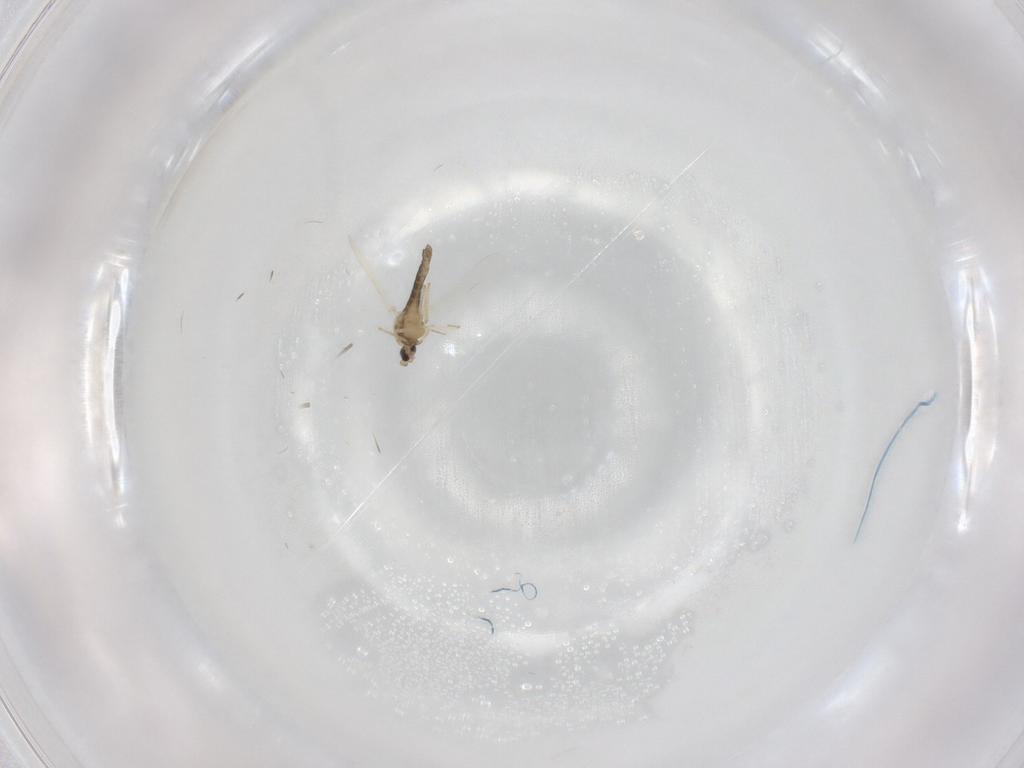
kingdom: Animalia
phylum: Arthropoda
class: Insecta
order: Diptera
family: Chironomidae
